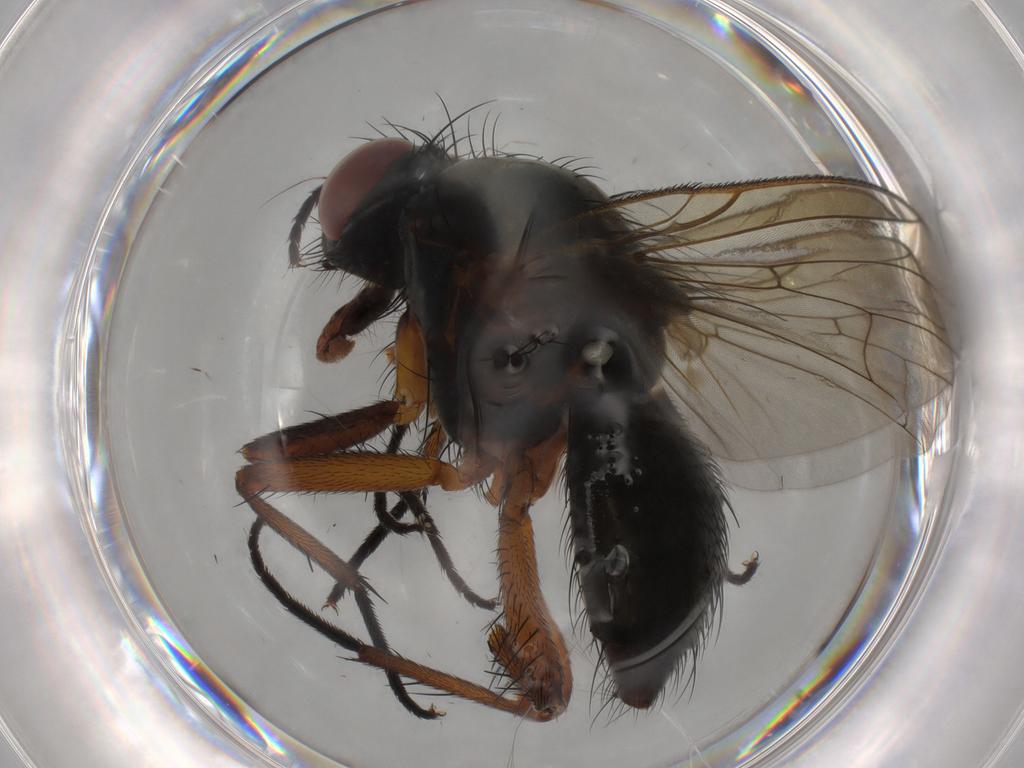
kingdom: Animalia
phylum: Arthropoda
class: Insecta
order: Diptera
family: Anthomyiidae
